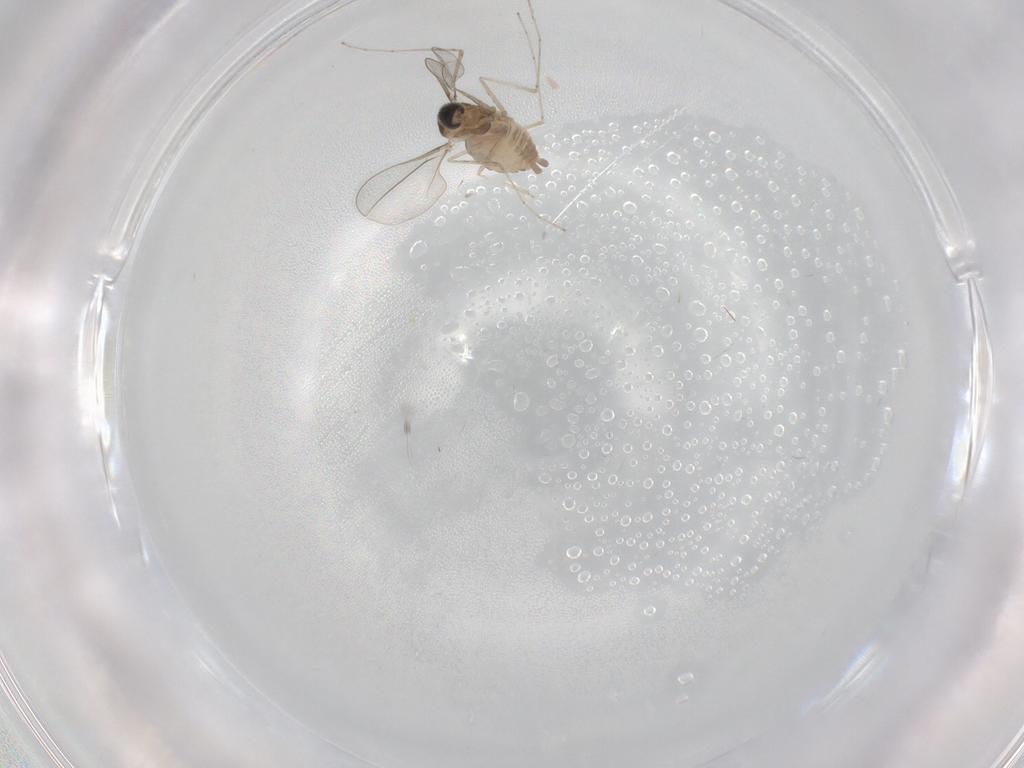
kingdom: Animalia
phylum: Arthropoda
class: Insecta
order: Diptera
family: Cecidomyiidae
